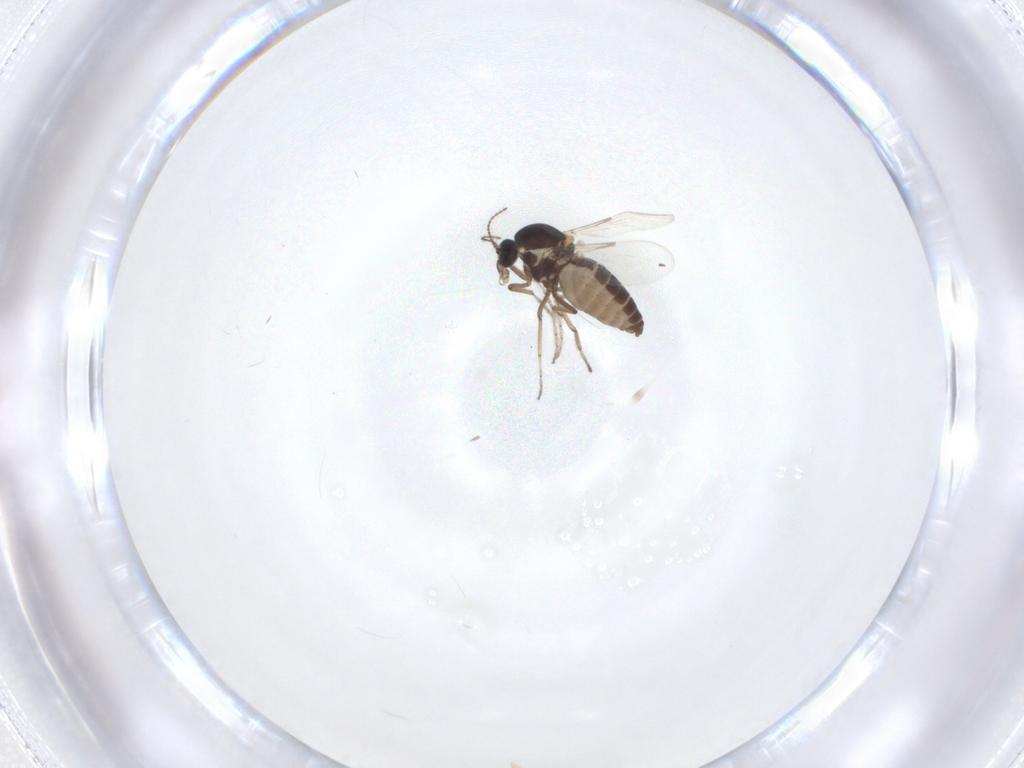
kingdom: Animalia
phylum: Arthropoda
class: Insecta
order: Diptera
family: Ceratopogonidae
